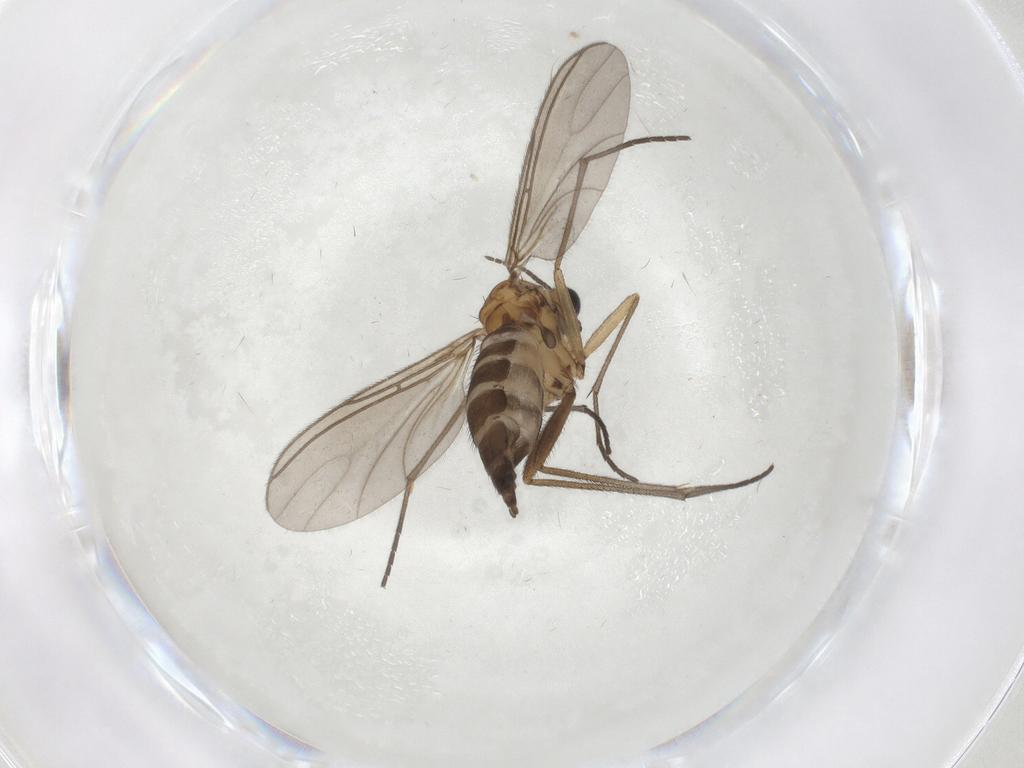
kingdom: Animalia
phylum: Arthropoda
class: Insecta
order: Diptera
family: Sciaridae
